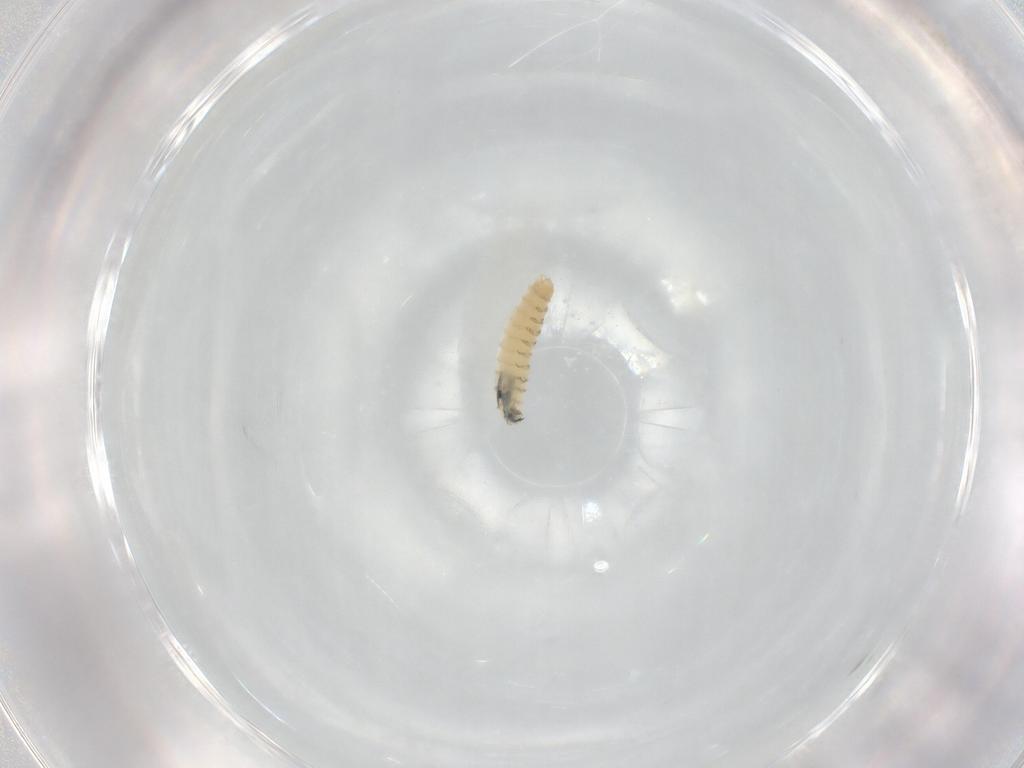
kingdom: Animalia
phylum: Arthropoda
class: Insecta
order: Diptera
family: Sarcophagidae
